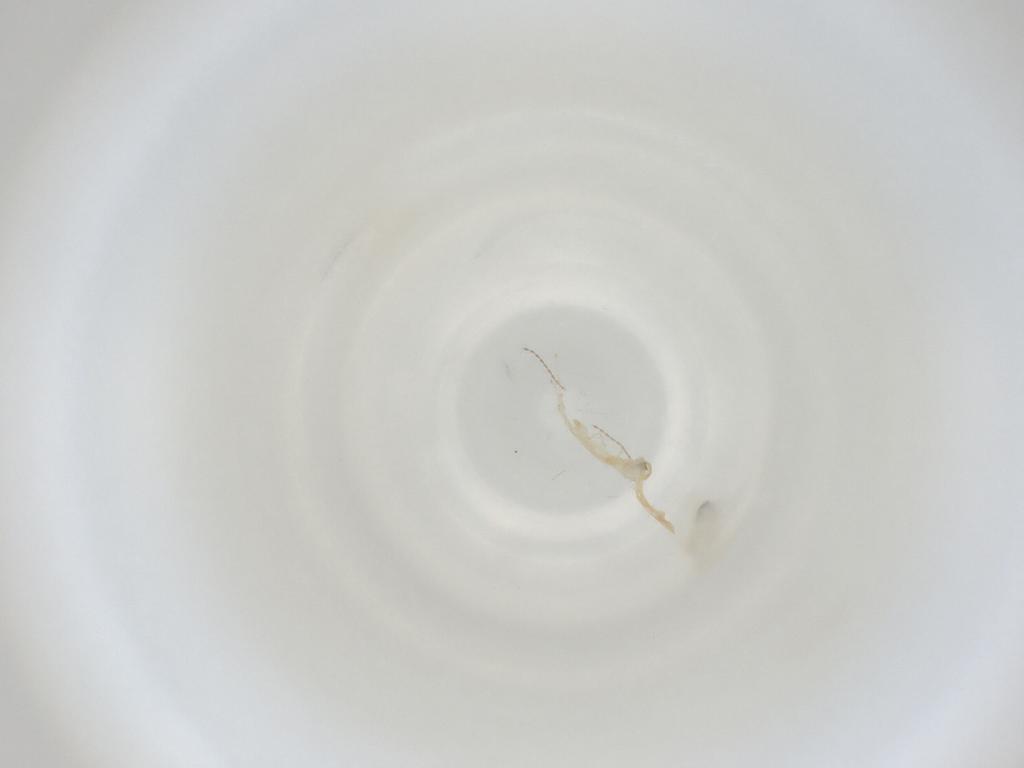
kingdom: Animalia
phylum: Arthropoda
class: Insecta
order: Diptera
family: Cecidomyiidae
